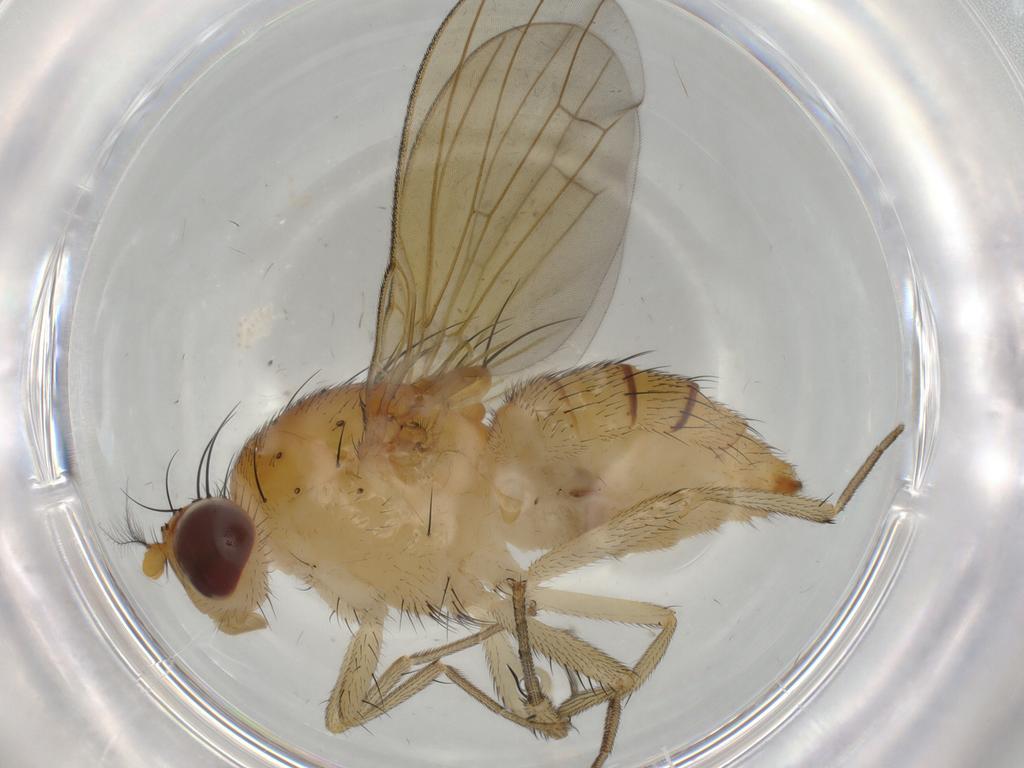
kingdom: Animalia
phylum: Arthropoda
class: Insecta
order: Diptera
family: Lauxaniidae
